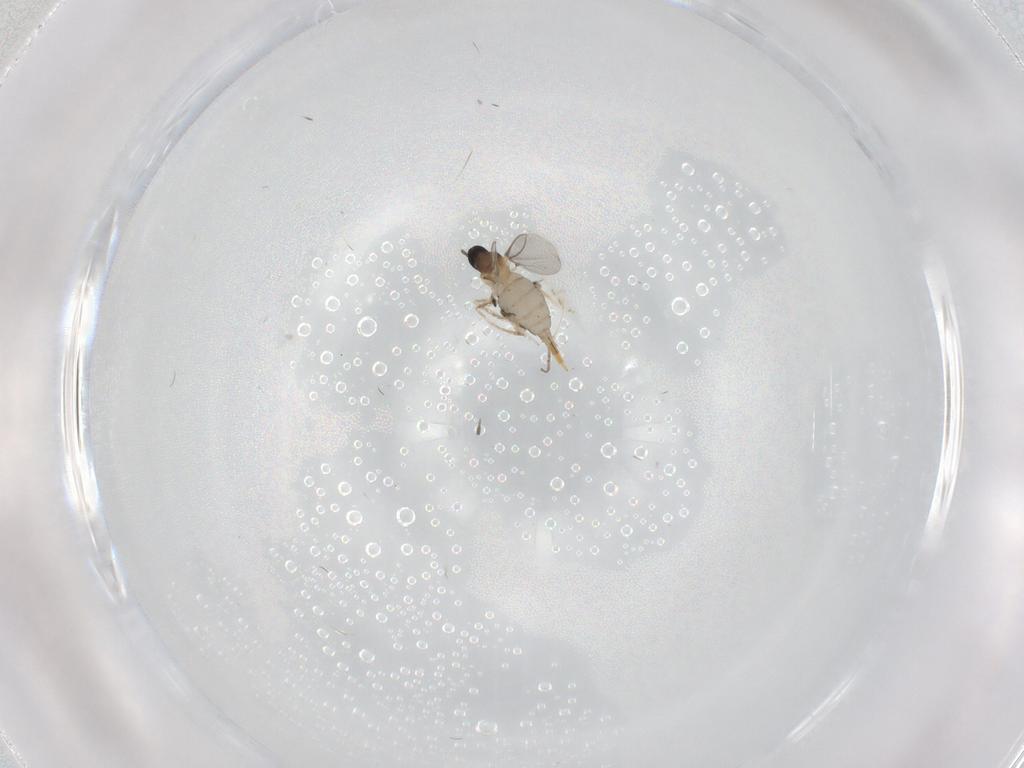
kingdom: Animalia
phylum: Arthropoda
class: Insecta
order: Diptera
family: Cecidomyiidae
